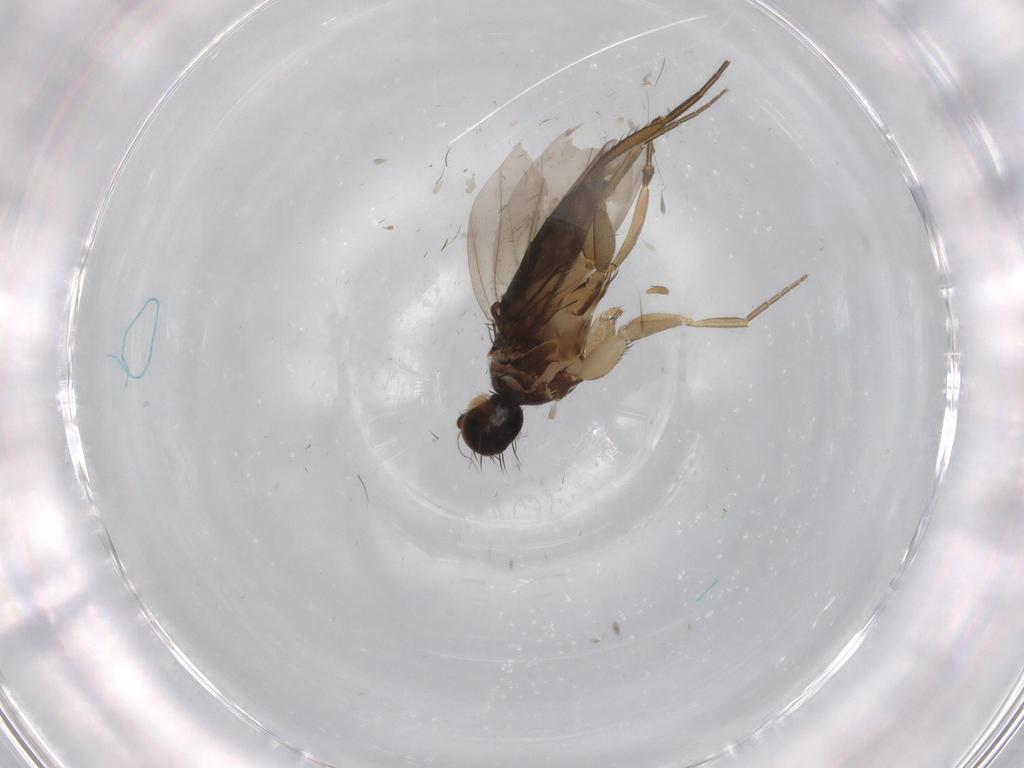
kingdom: Animalia
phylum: Arthropoda
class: Insecta
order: Diptera
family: Phoridae
